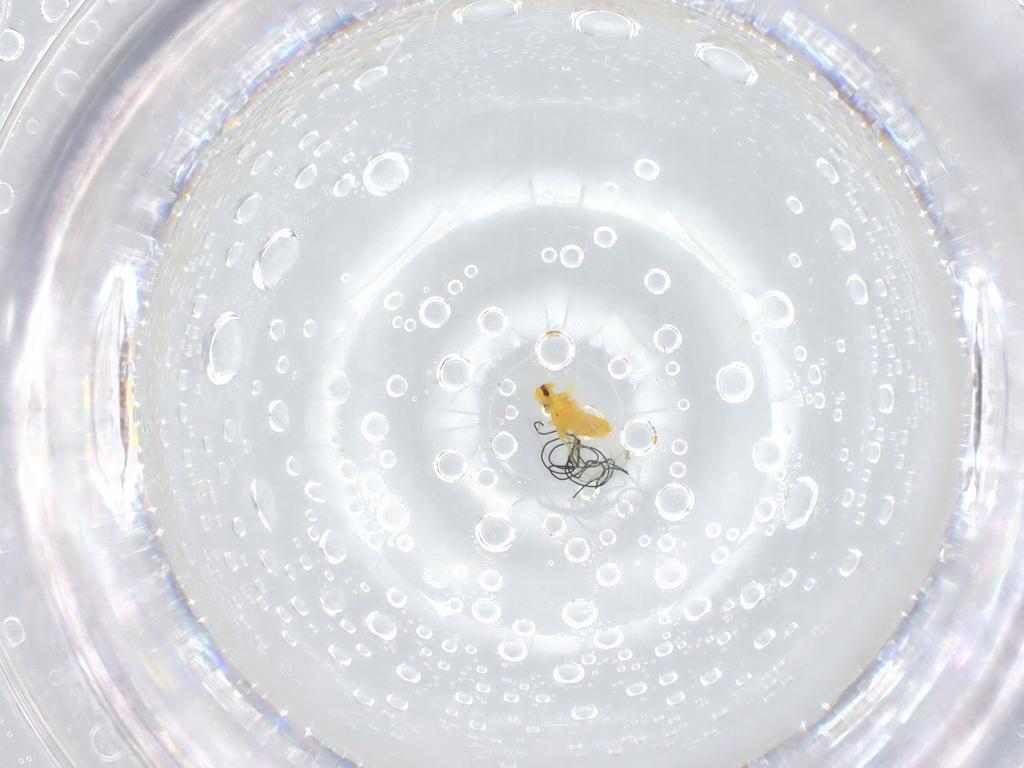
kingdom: Animalia
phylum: Arthropoda
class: Insecta
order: Hemiptera
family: Aleyrodidae
